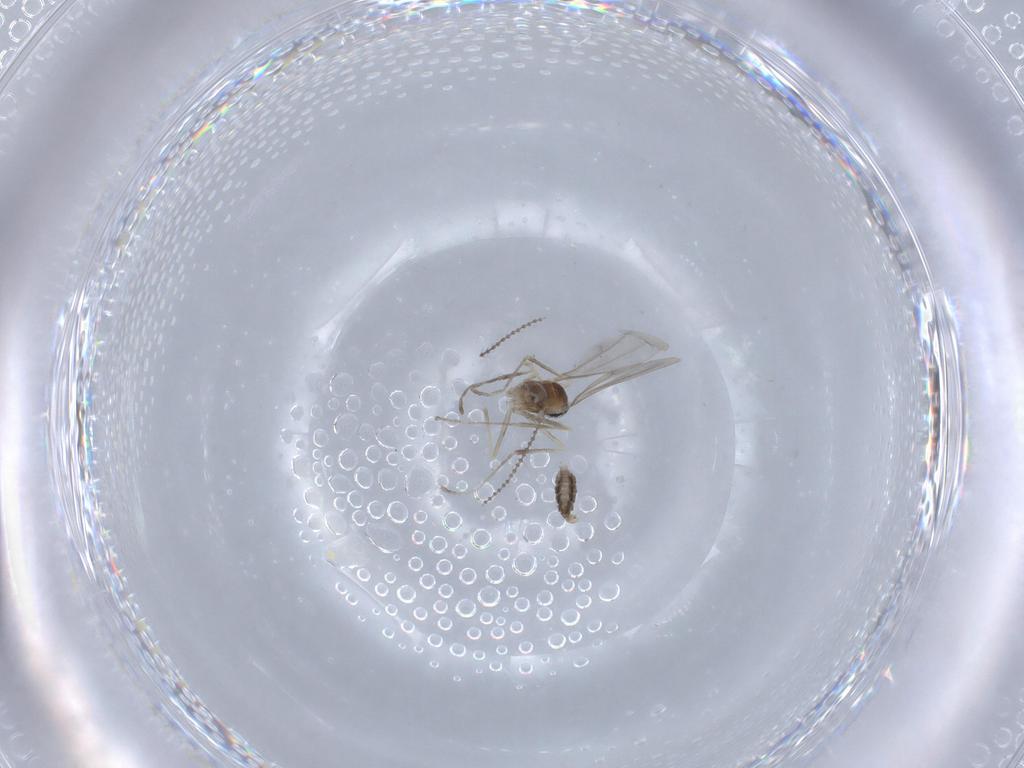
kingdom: Animalia
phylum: Arthropoda
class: Insecta
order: Diptera
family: Cecidomyiidae
